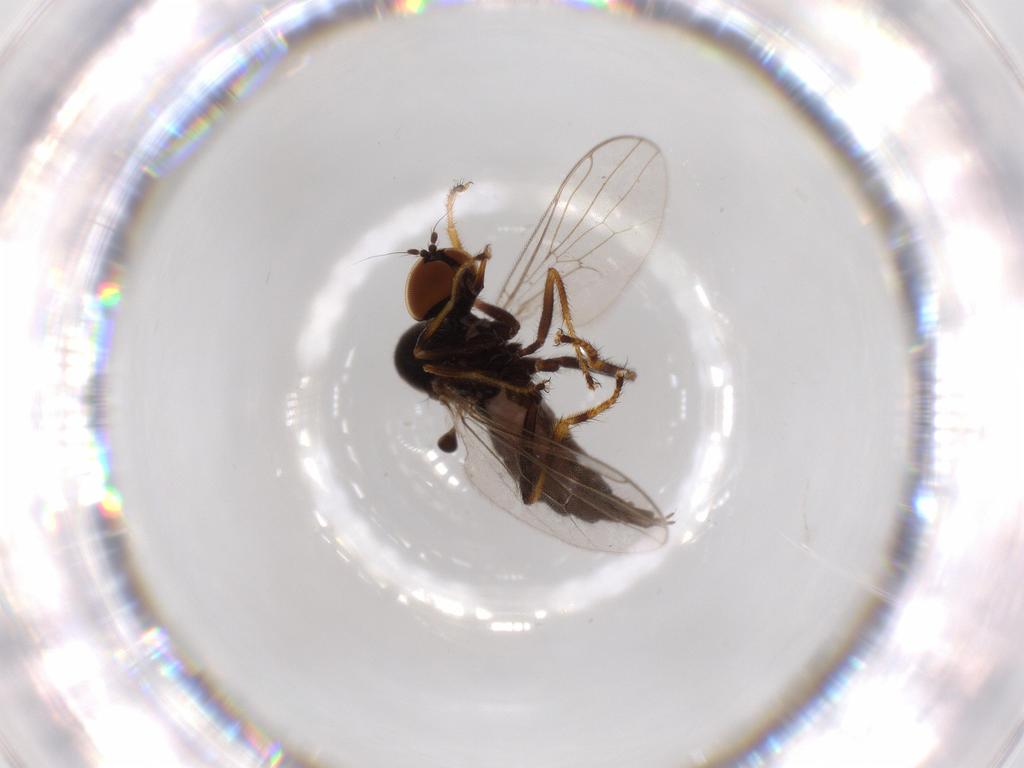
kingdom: Animalia
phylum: Arthropoda
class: Insecta
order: Diptera
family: Hybotidae
